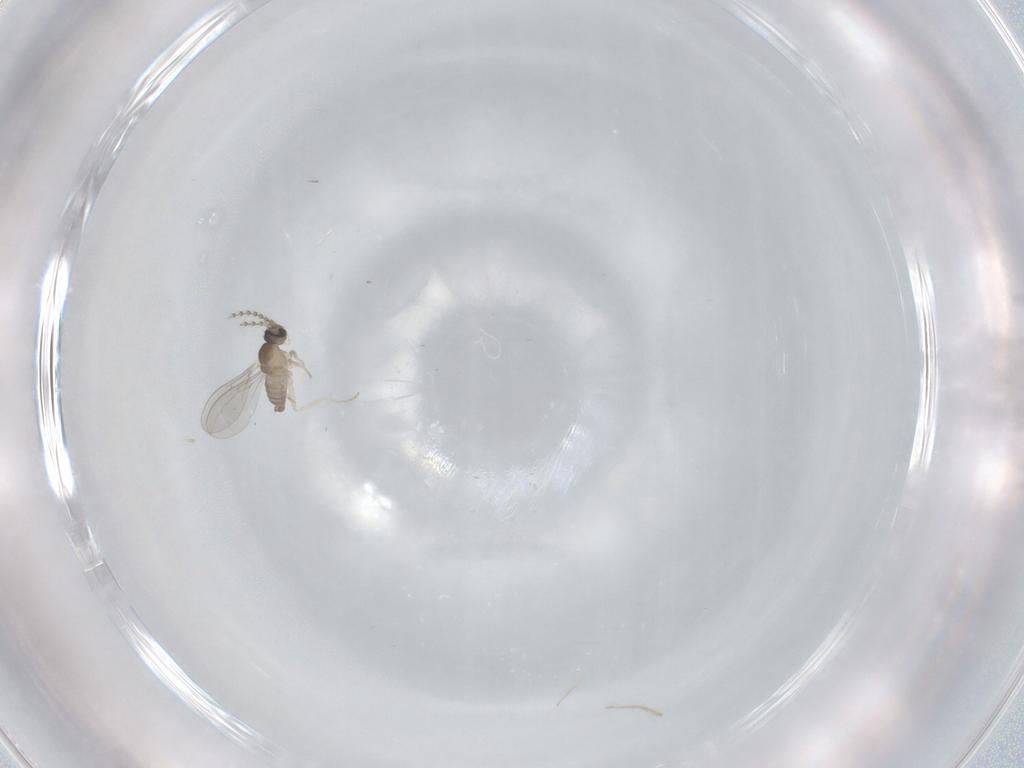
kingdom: Animalia
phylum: Arthropoda
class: Insecta
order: Diptera
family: Cecidomyiidae
